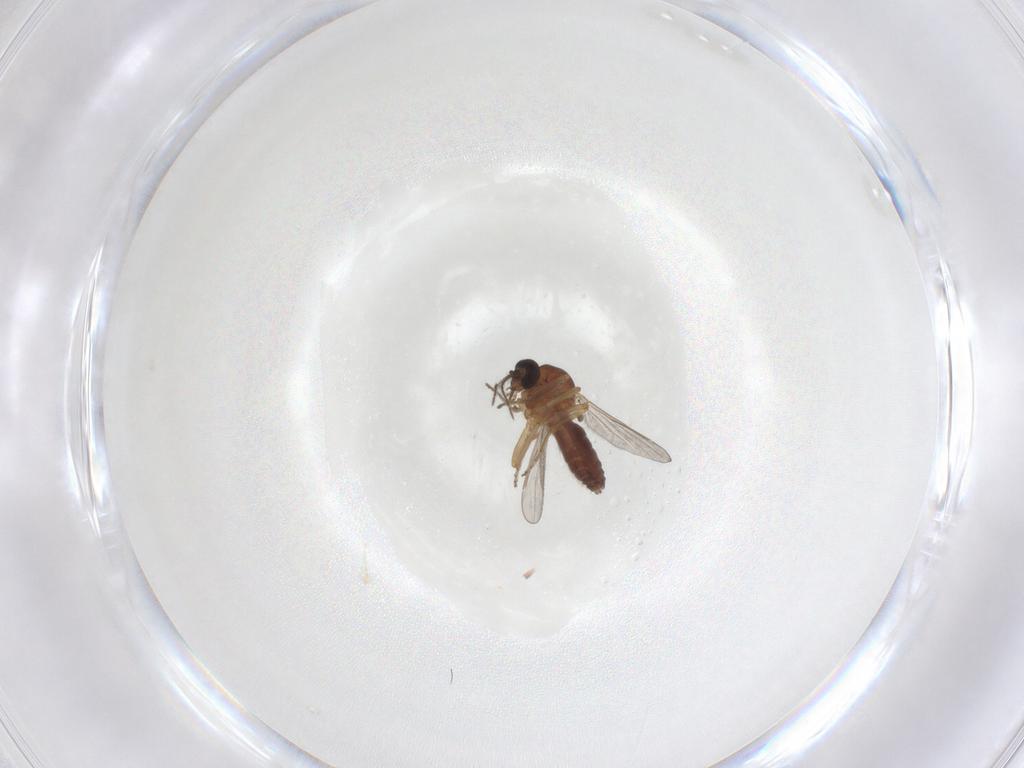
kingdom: Animalia
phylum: Arthropoda
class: Insecta
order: Diptera
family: Ceratopogonidae
